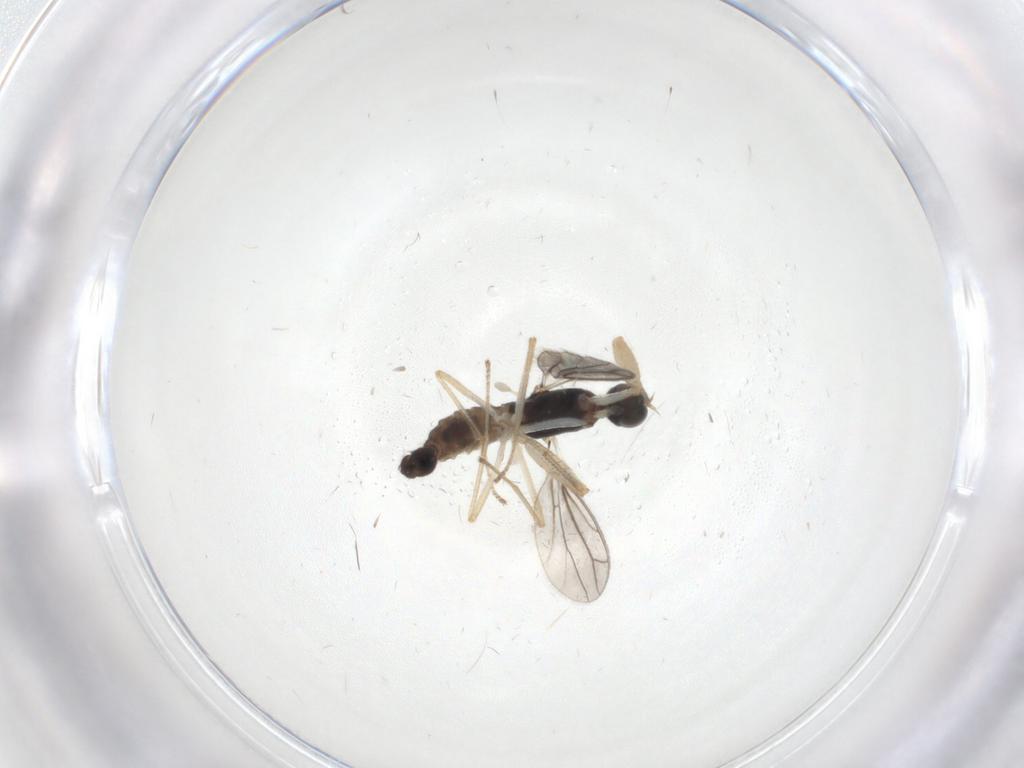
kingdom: Animalia
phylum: Arthropoda
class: Insecta
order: Diptera
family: Empididae
